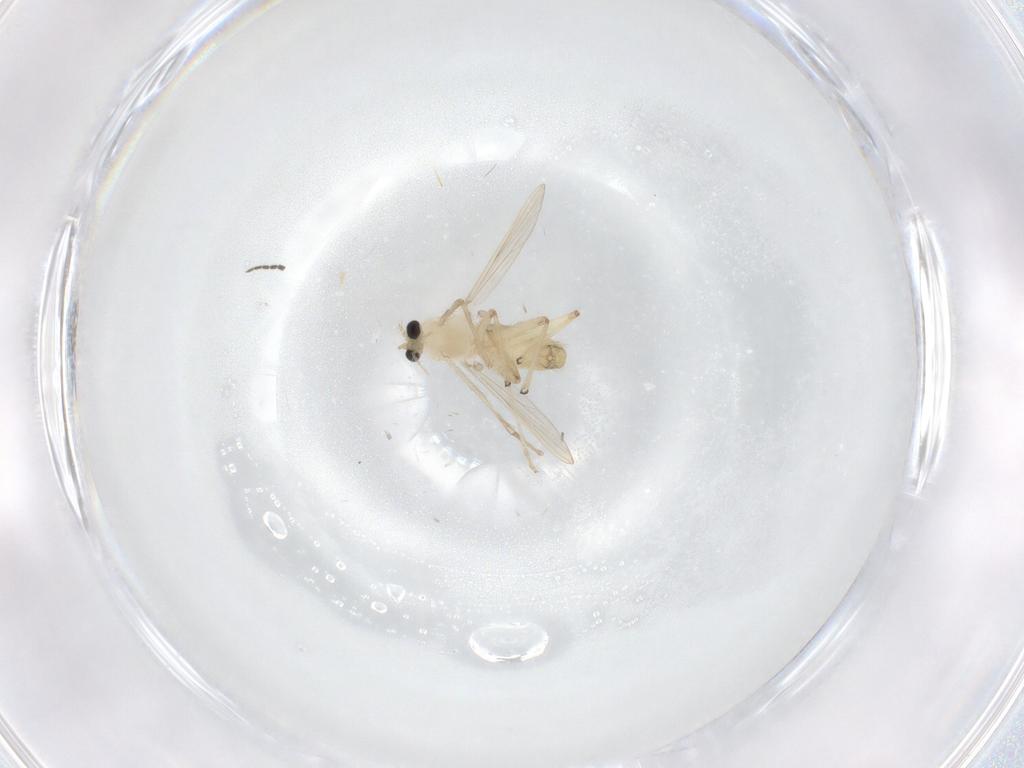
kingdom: Animalia
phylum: Arthropoda
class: Insecta
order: Diptera
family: Chironomidae
